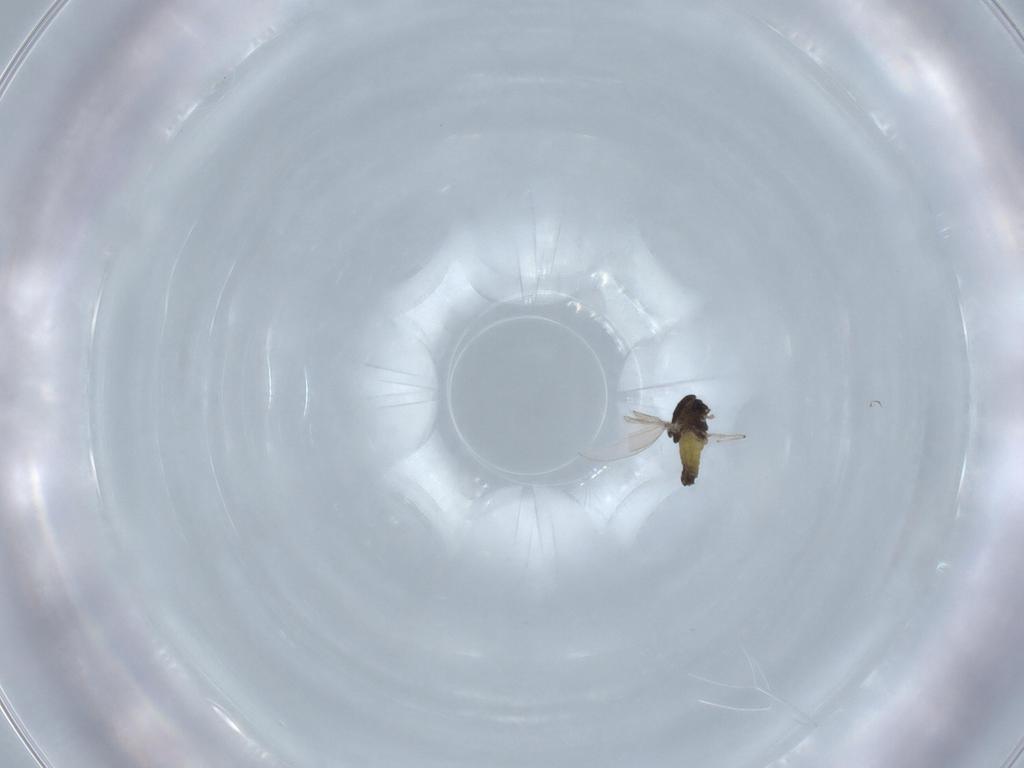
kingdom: Animalia
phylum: Arthropoda
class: Insecta
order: Diptera
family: Chironomidae
